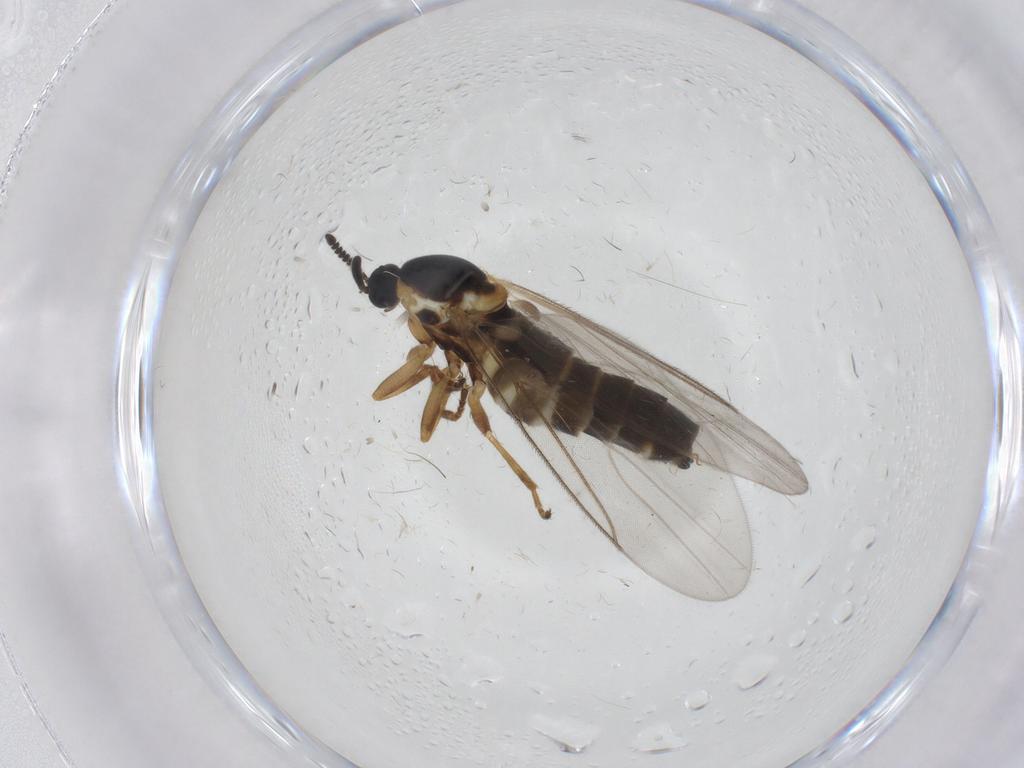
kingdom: Animalia
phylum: Arthropoda
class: Insecta
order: Diptera
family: Scatopsidae
